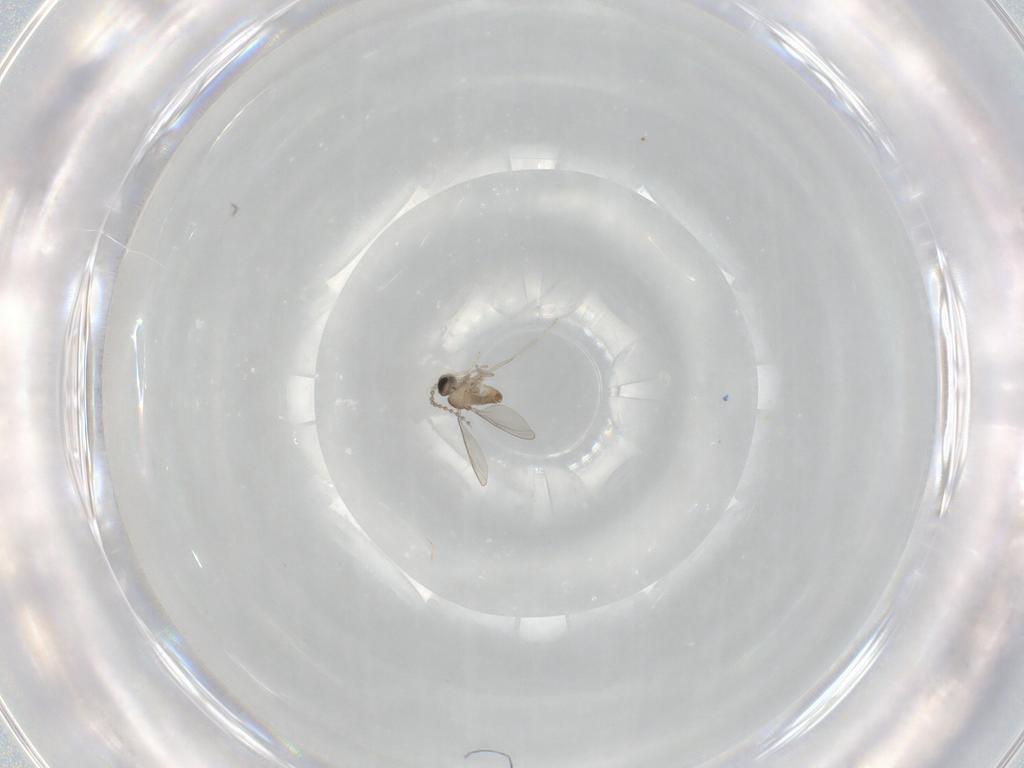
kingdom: Animalia
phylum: Arthropoda
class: Insecta
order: Diptera
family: Cecidomyiidae
